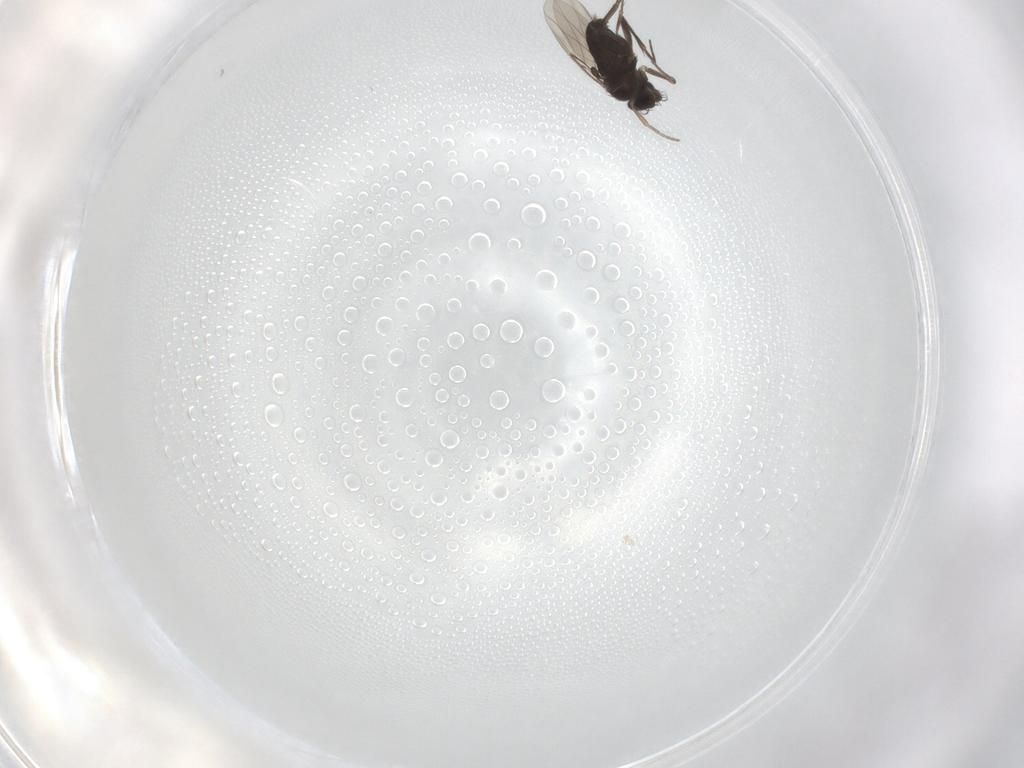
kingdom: Animalia
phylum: Arthropoda
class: Insecta
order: Diptera
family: Phoridae
